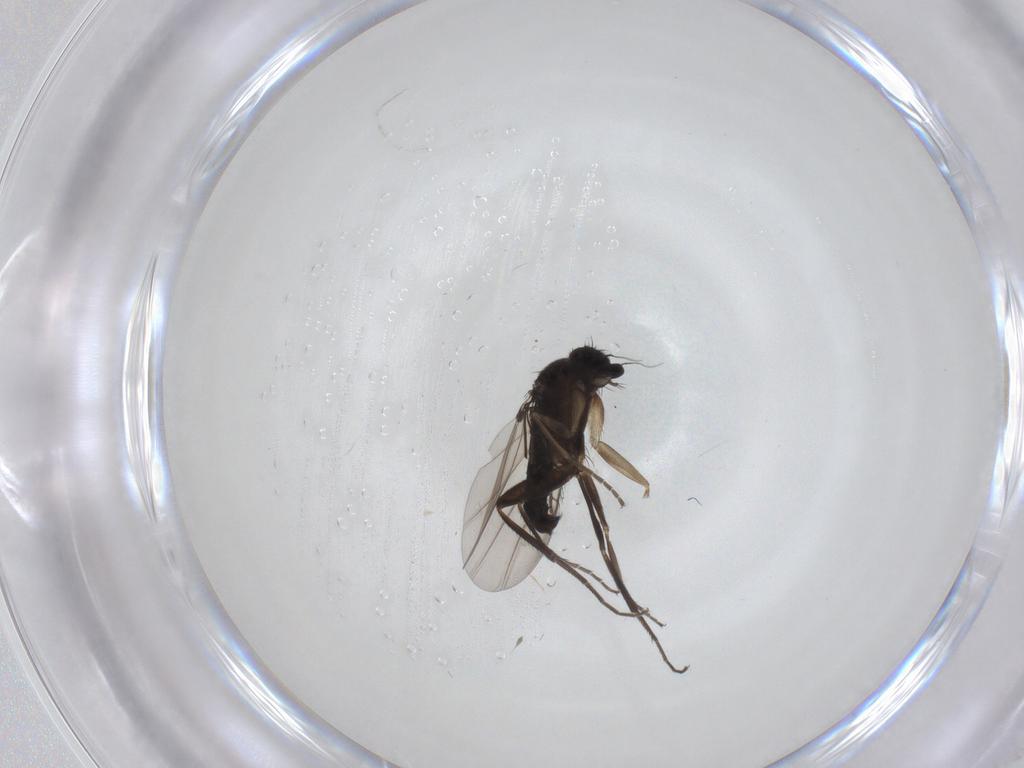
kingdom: Animalia
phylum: Arthropoda
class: Insecta
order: Diptera
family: Phoridae
